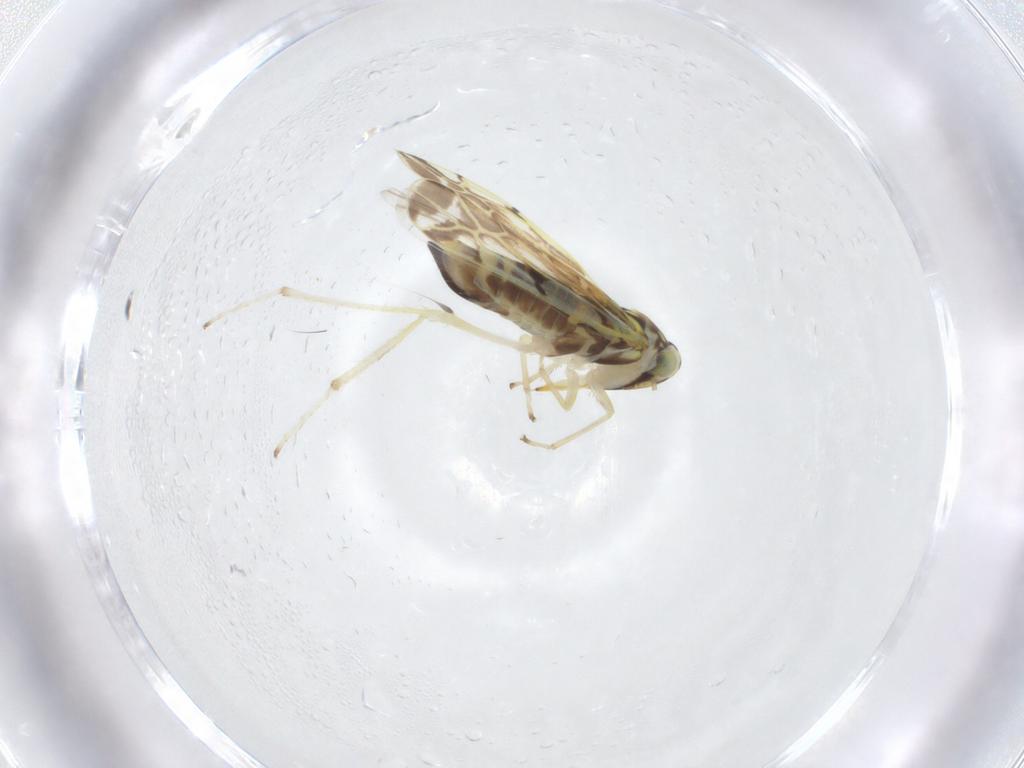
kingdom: Animalia
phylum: Arthropoda
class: Insecta
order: Hemiptera
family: Cicadellidae
